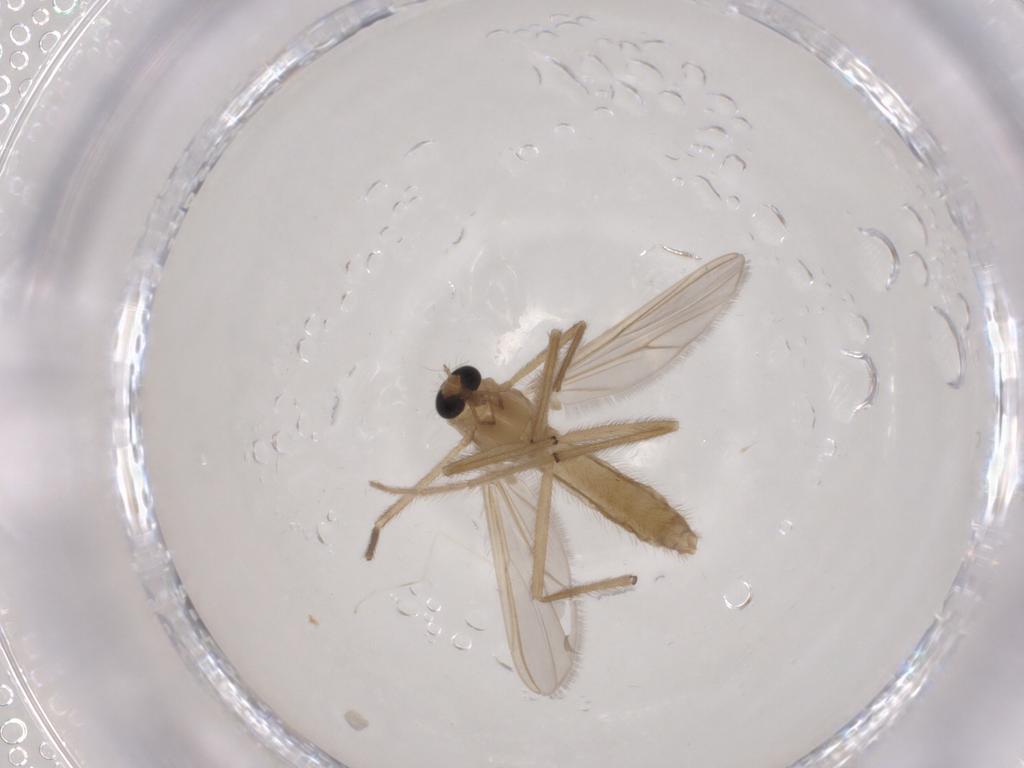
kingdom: Animalia
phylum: Arthropoda
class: Insecta
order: Diptera
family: Chironomidae
